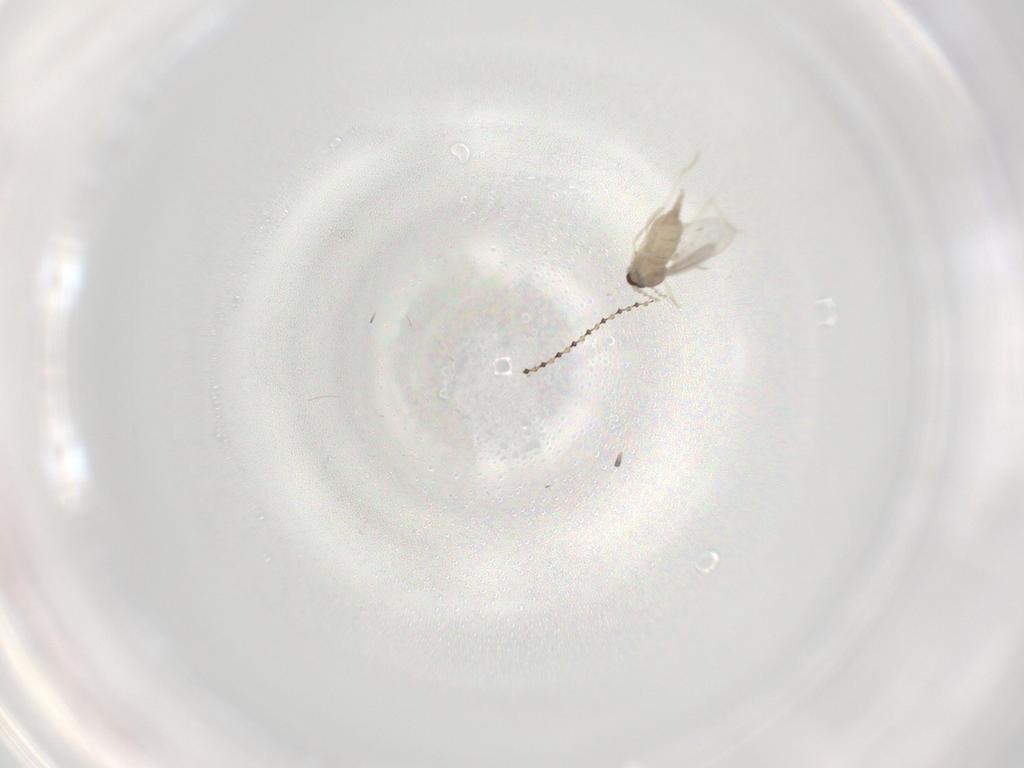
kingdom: Animalia
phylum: Arthropoda
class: Insecta
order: Diptera
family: Cecidomyiidae
